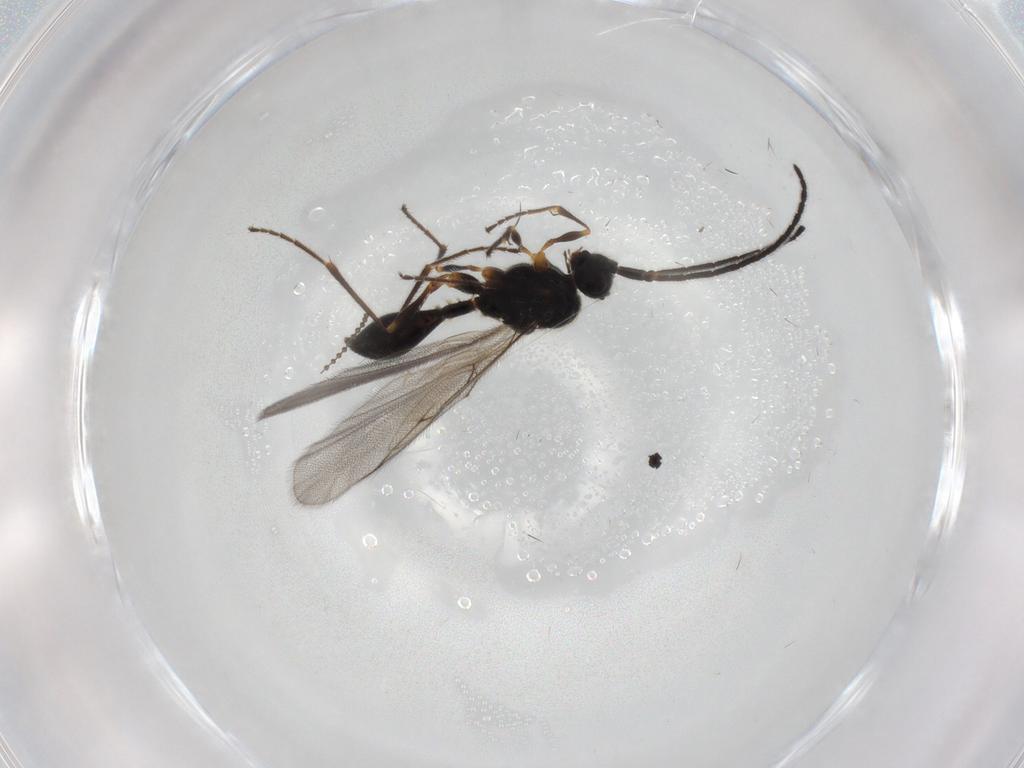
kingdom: Animalia
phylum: Arthropoda
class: Insecta
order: Hymenoptera
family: Diapriidae
